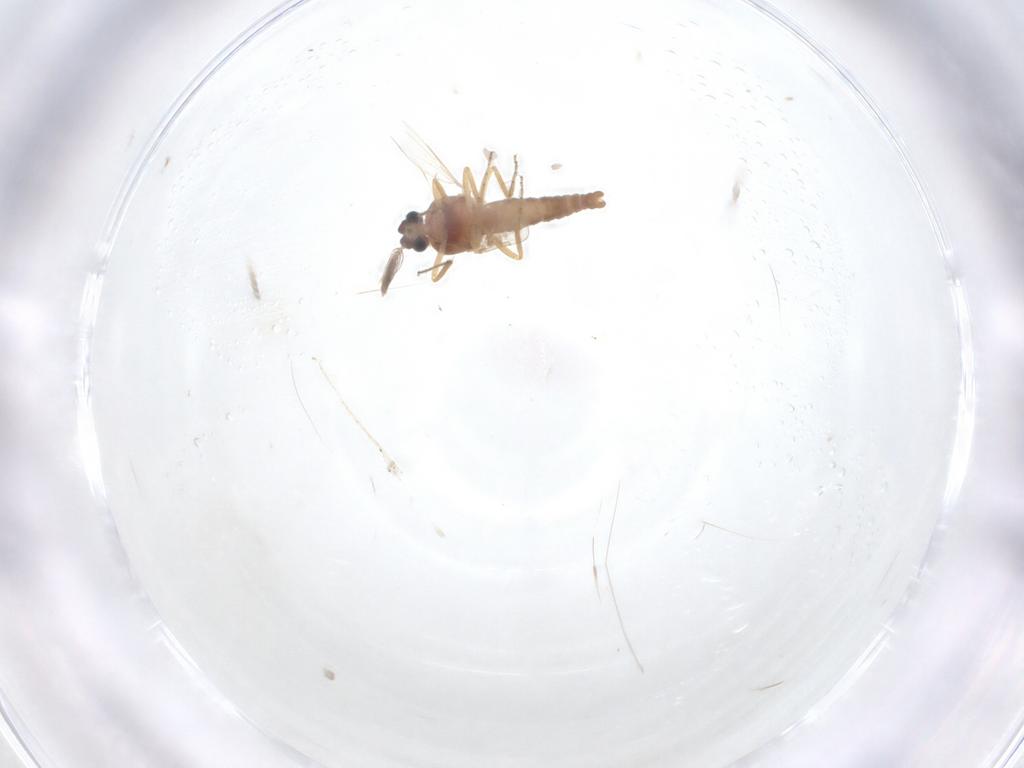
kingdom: Animalia
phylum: Arthropoda
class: Insecta
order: Diptera
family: Ceratopogonidae
